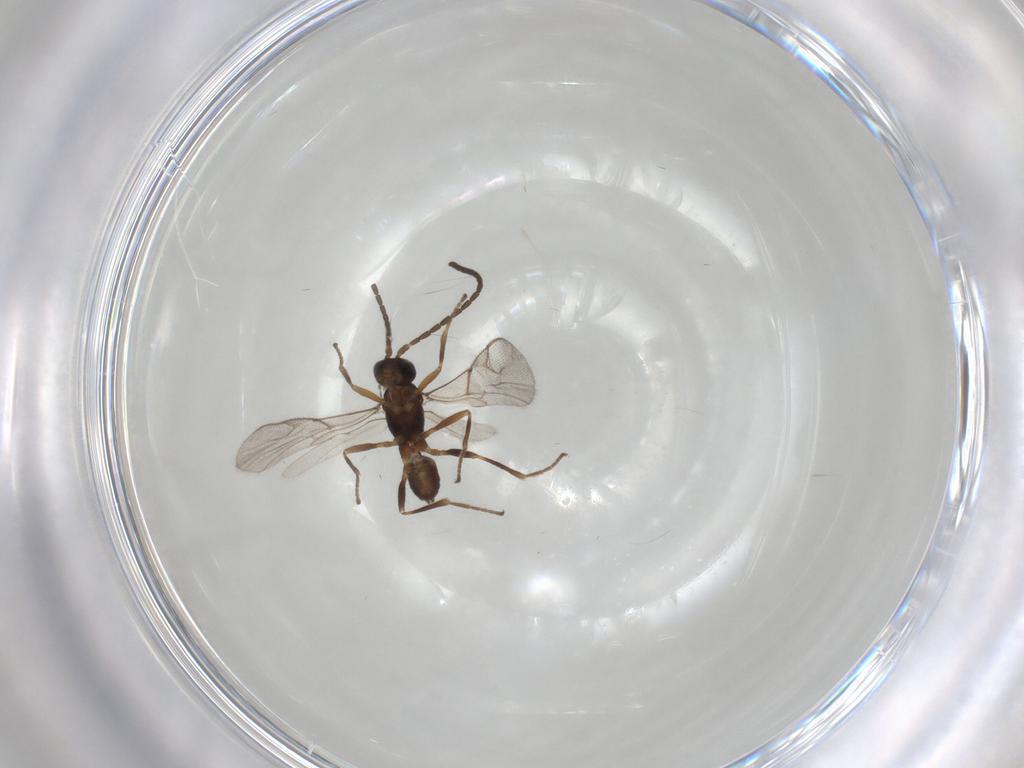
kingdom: Animalia
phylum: Arthropoda
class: Insecta
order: Hymenoptera
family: Braconidae
